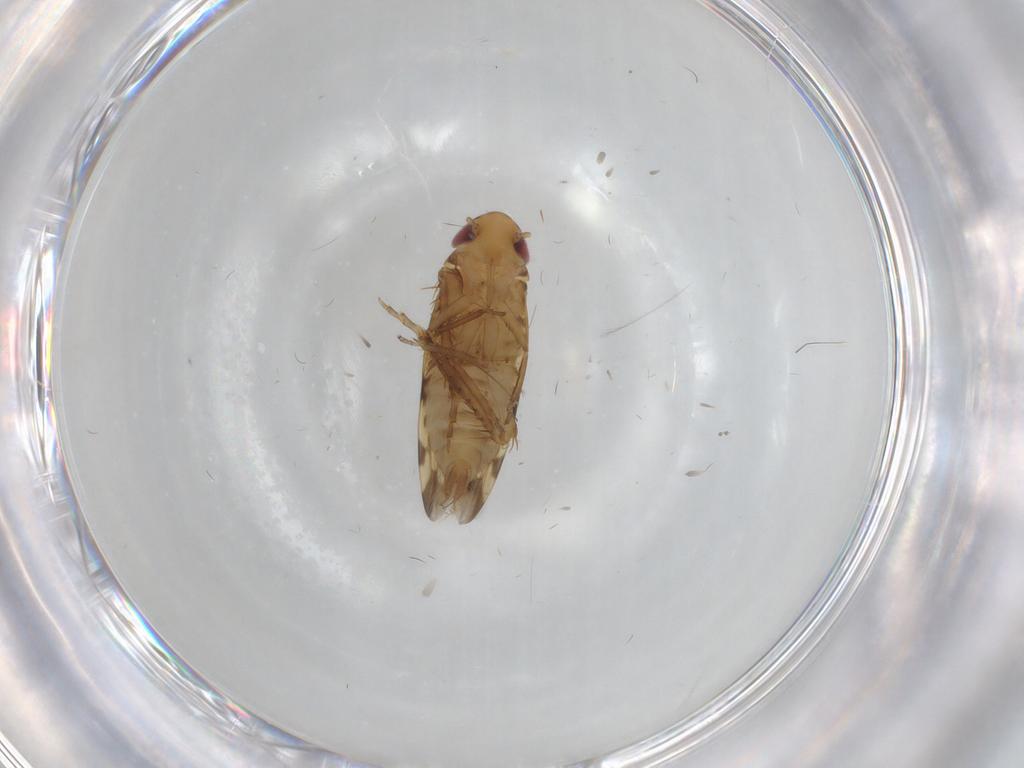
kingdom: Animalia
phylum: Arthropoda
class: Insecta
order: Hemiptera
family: Cicadellidae
